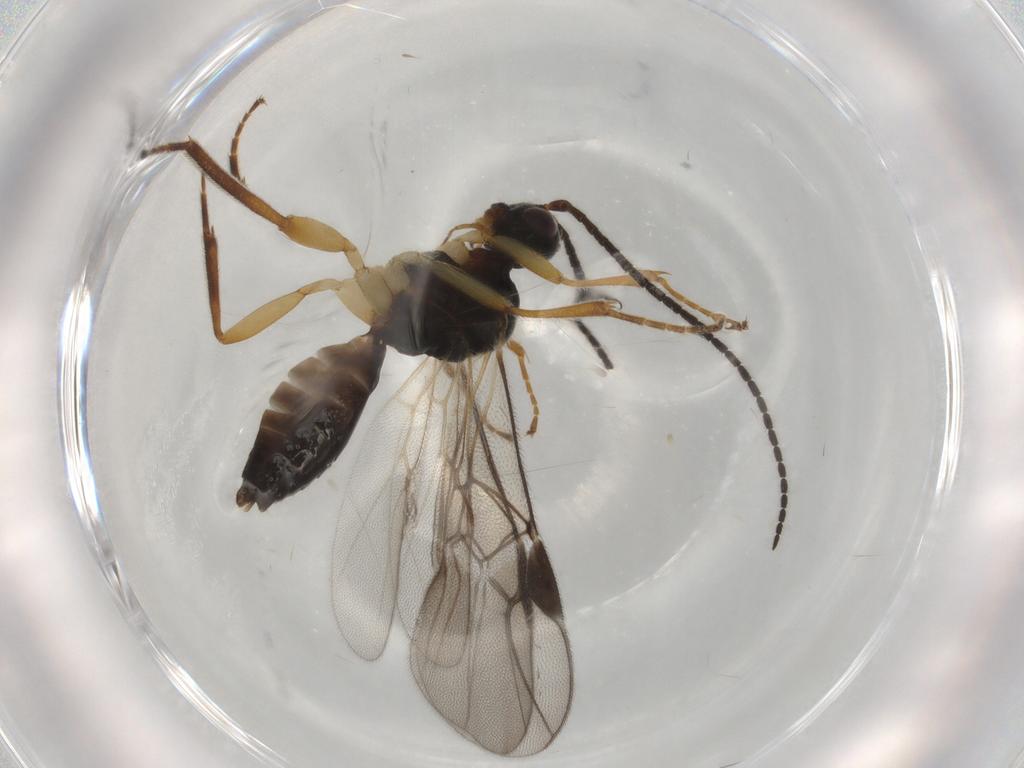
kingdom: Animalia
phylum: Arthropoda
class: Insecta
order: Hymenoptera
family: Braconidae
